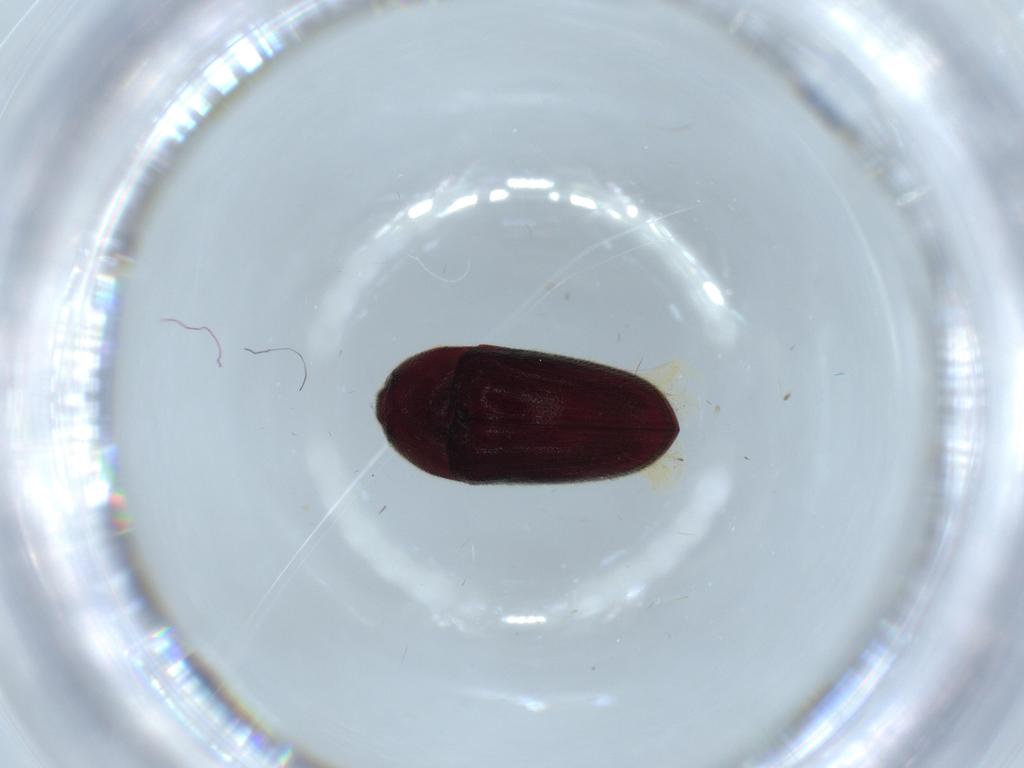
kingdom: Animalia
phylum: Arthropoda
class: Insecta
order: Coleoptera
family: Throscidae
